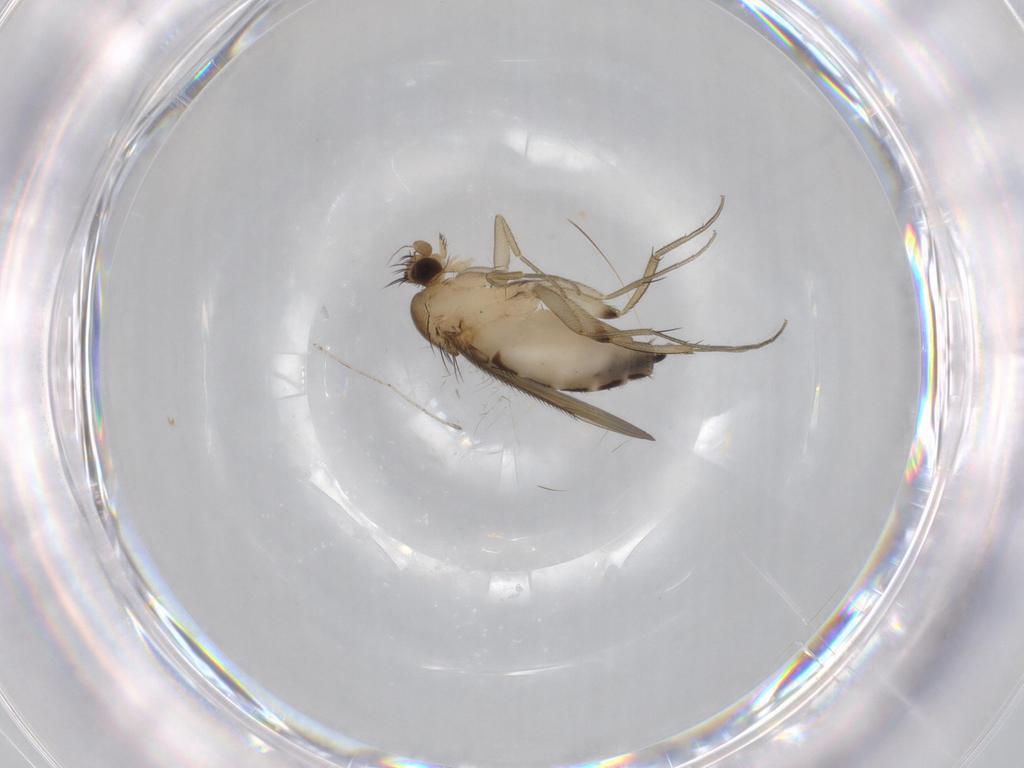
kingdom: Animalia
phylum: Arthropoda
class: Insecta
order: Diptera
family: Phoridae
